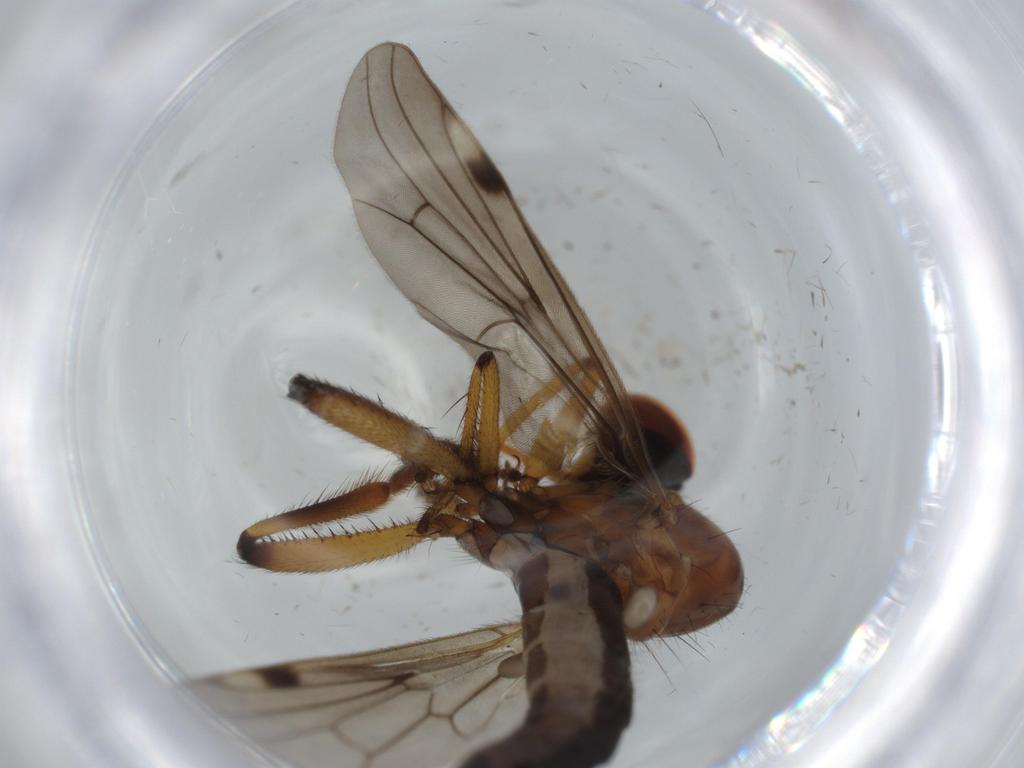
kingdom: Animalia
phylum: Arthropoda
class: Insecta
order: Diptera
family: Hybotidae
